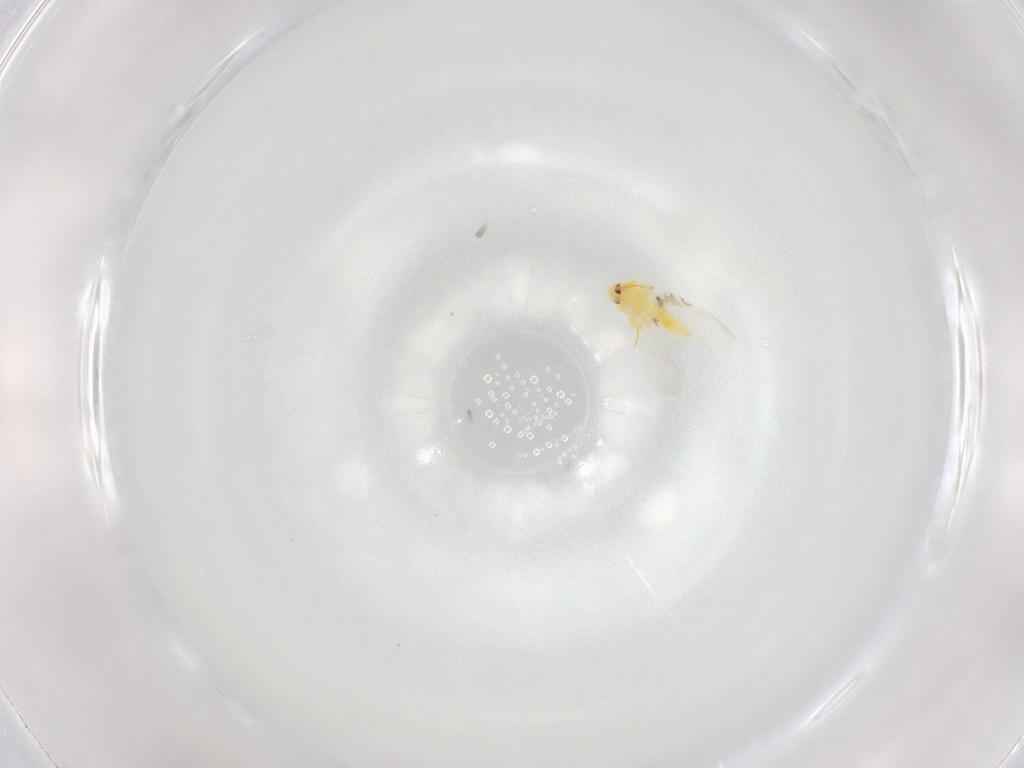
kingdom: Animalia
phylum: Arthropoda
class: Insecta
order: Hemiptera
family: Aleyrodidae
